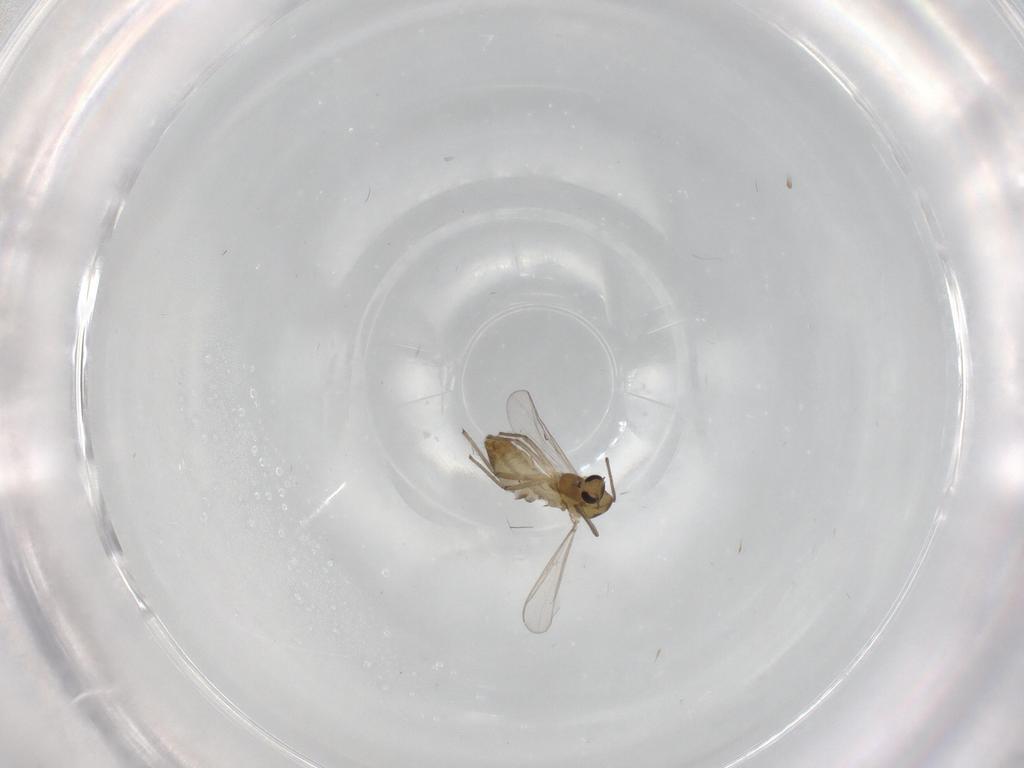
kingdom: Animalia
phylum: Arthropoda
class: Insecta
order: Diptera
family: Chironomidae
